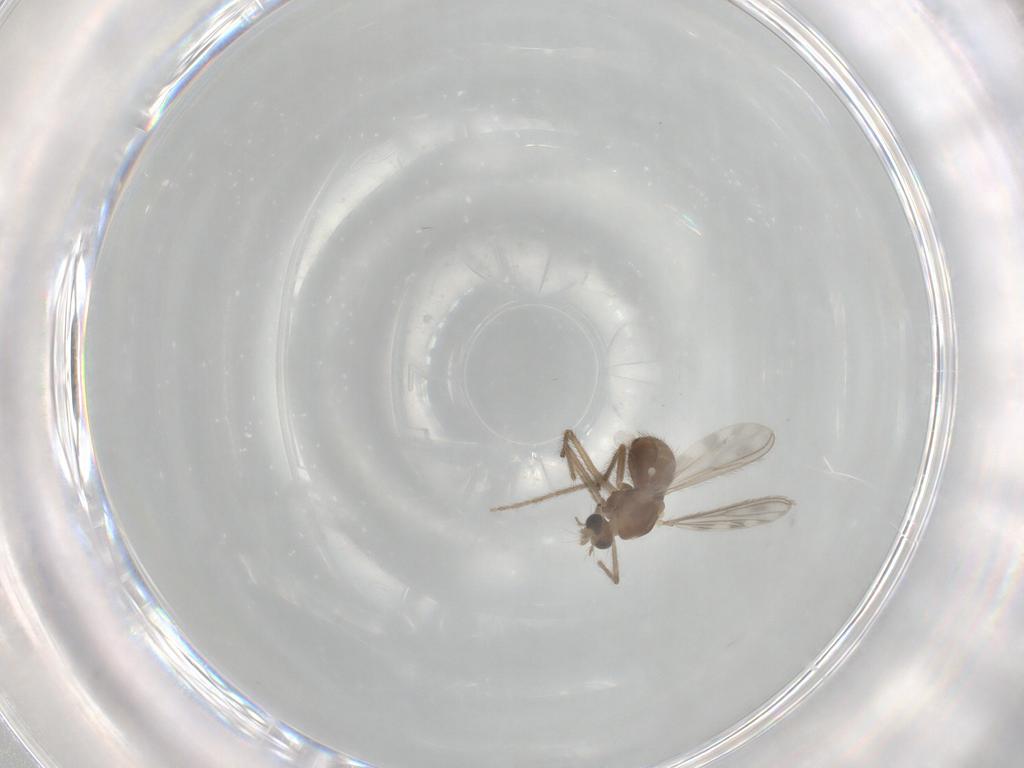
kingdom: Animalia
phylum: Arthropoda
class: Insecta
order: Diptera
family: Chironomidae
